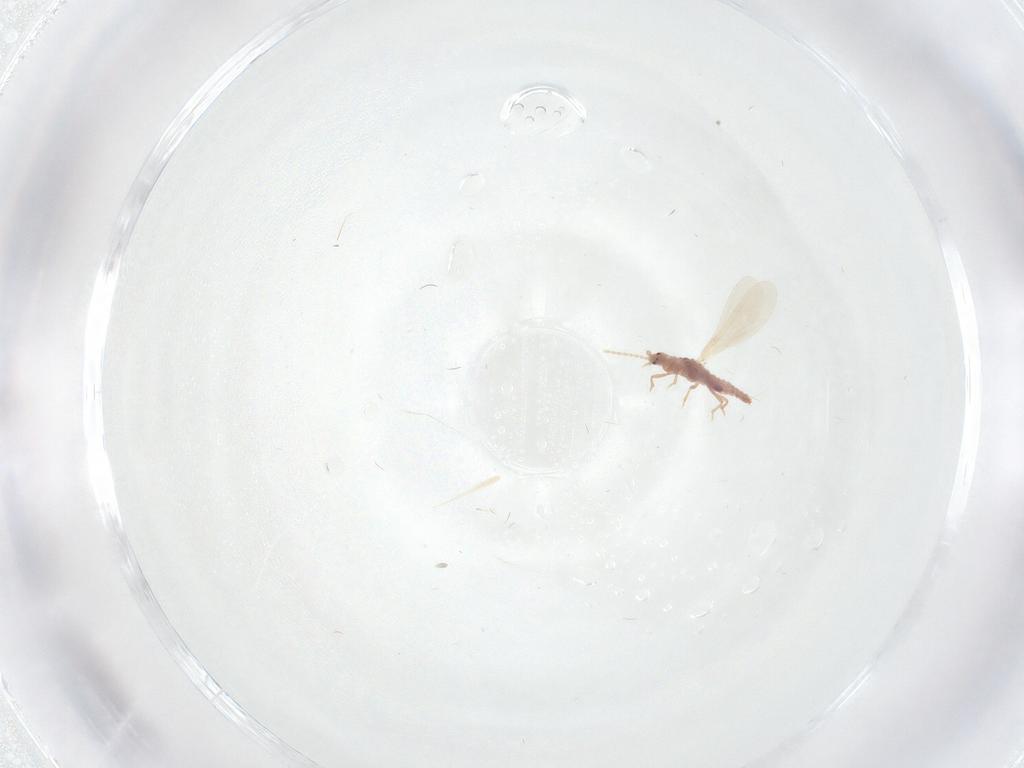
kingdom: Animalia
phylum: Arthropoda
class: Insecta
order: Hemiptera
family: Pseudococcidae
